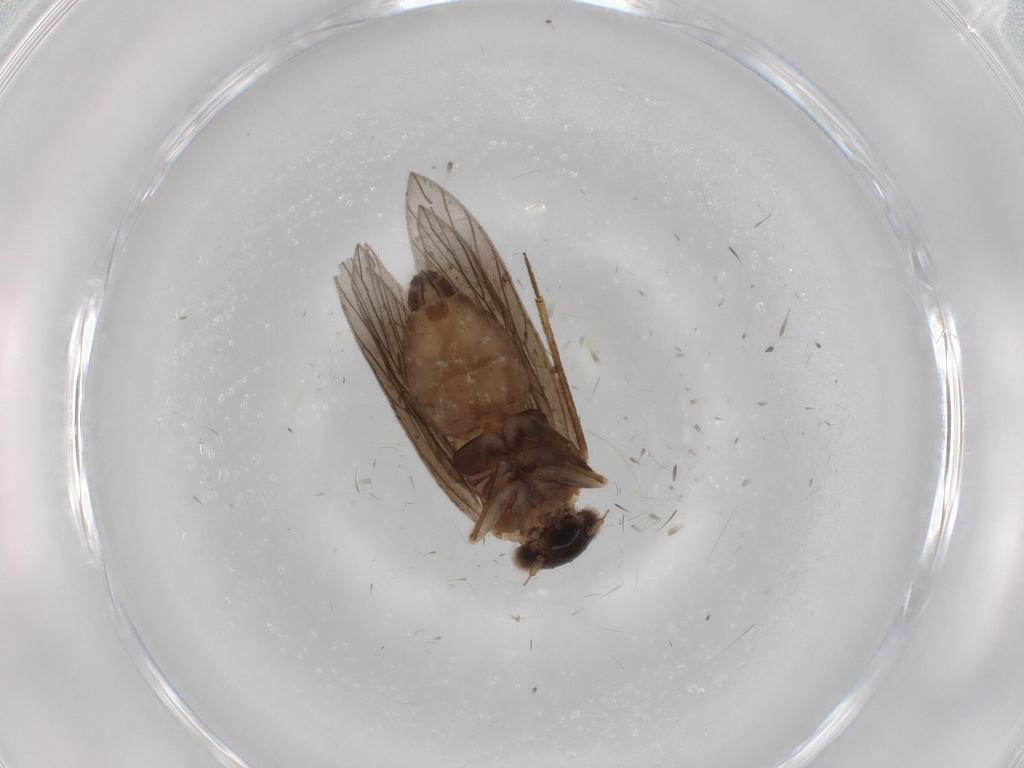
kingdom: Animalia
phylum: Arthropoda
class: Insecta
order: Psocodea
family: Lepidopsocidae
